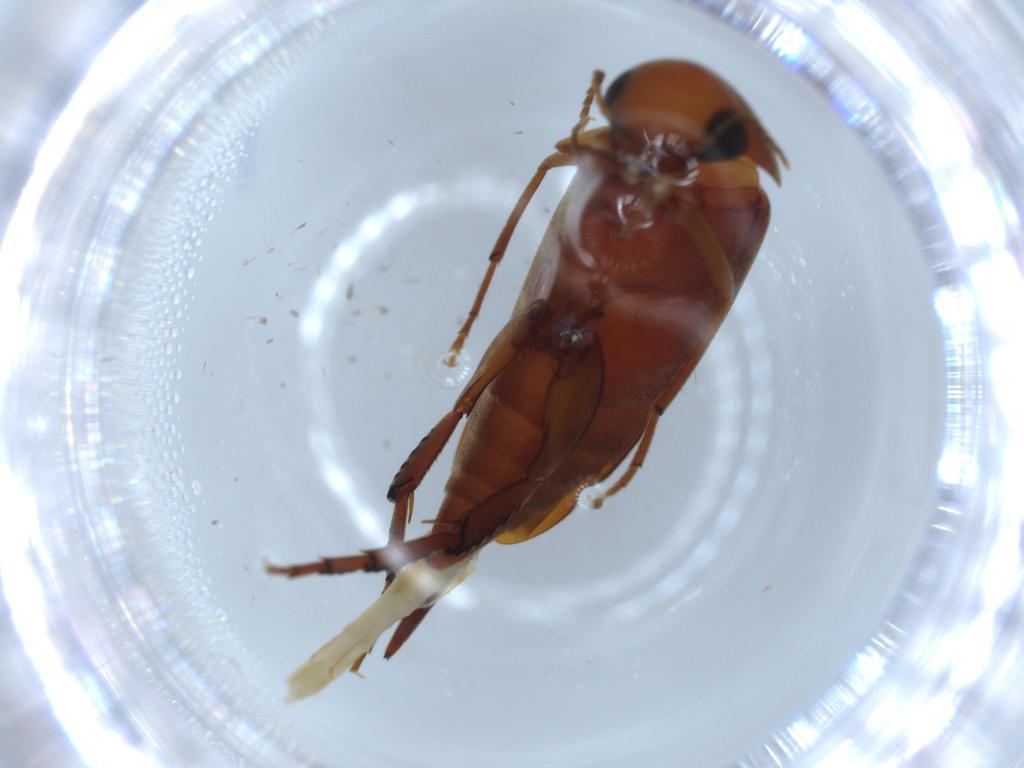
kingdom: Animalia
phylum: Arthropoda
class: Insecta
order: Coleoptera
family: Mordellidae
